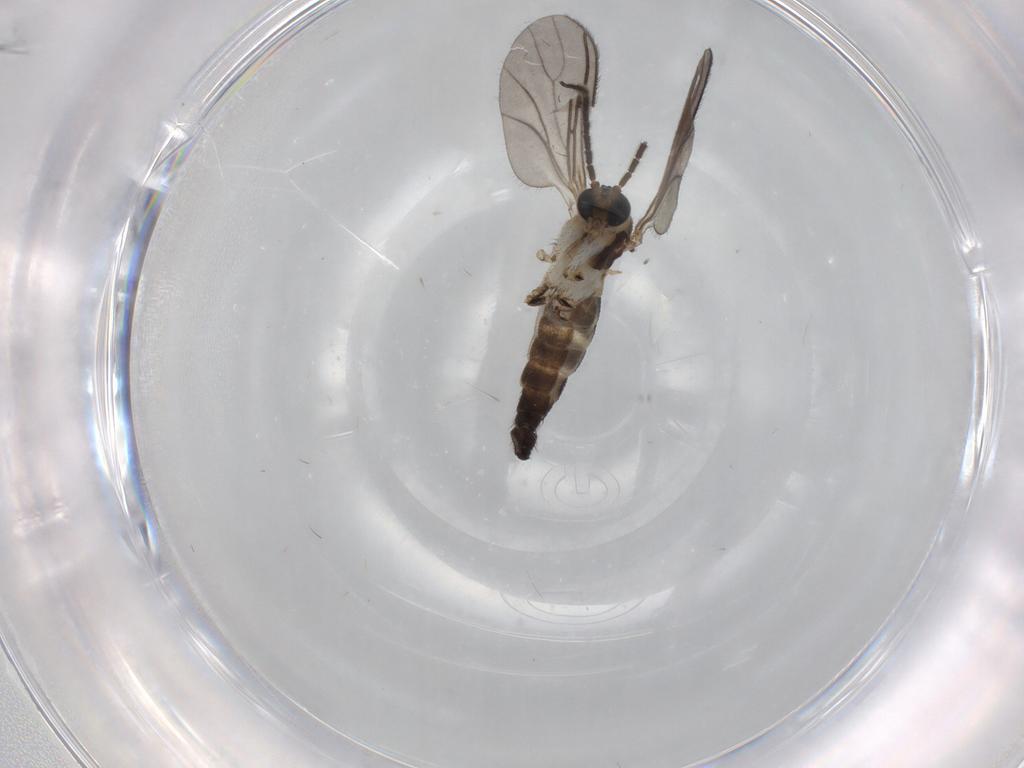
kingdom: Animalia
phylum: Arthropoda
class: Insecta
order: Diptera
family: Sciaridae
